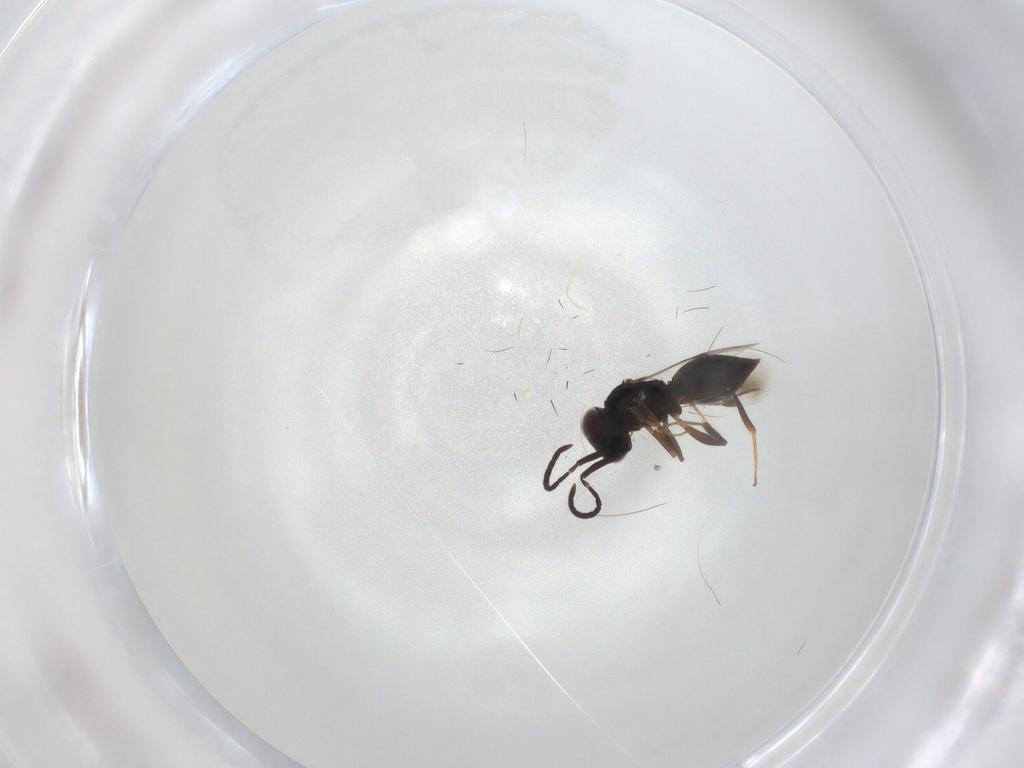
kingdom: Animalia
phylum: Arthropoda
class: Insecta
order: Hymenoptera
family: Megaspilidae
